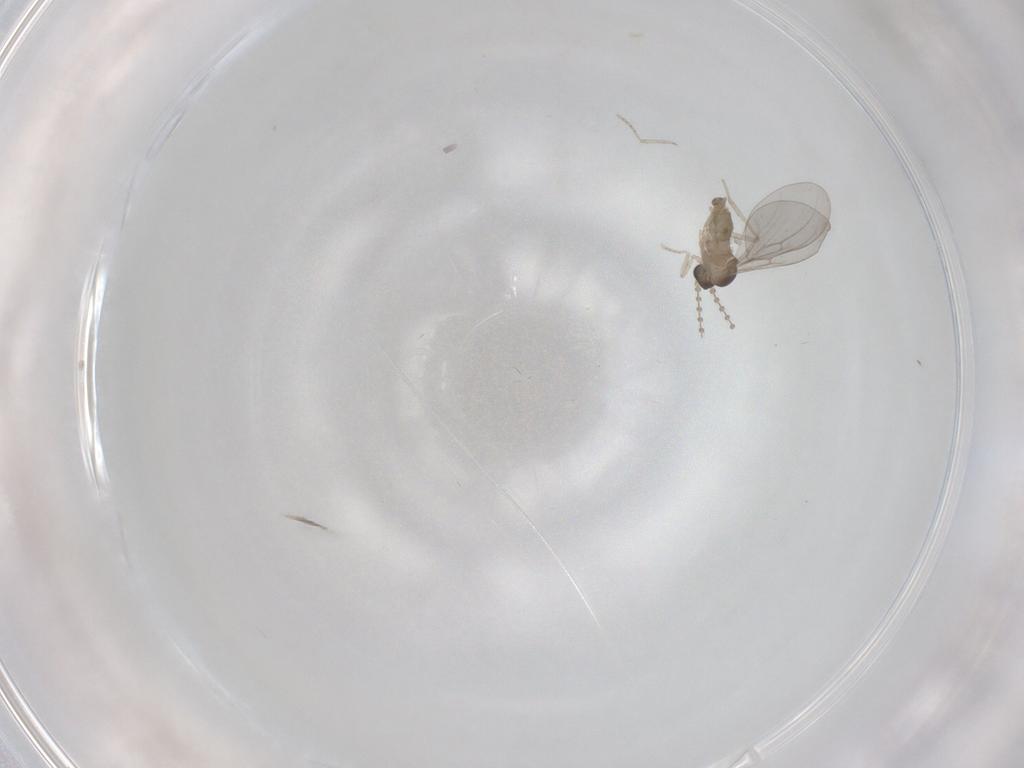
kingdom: Animalia
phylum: Arthropoda
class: Insecta
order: Diptera
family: Cecidomyiidae
